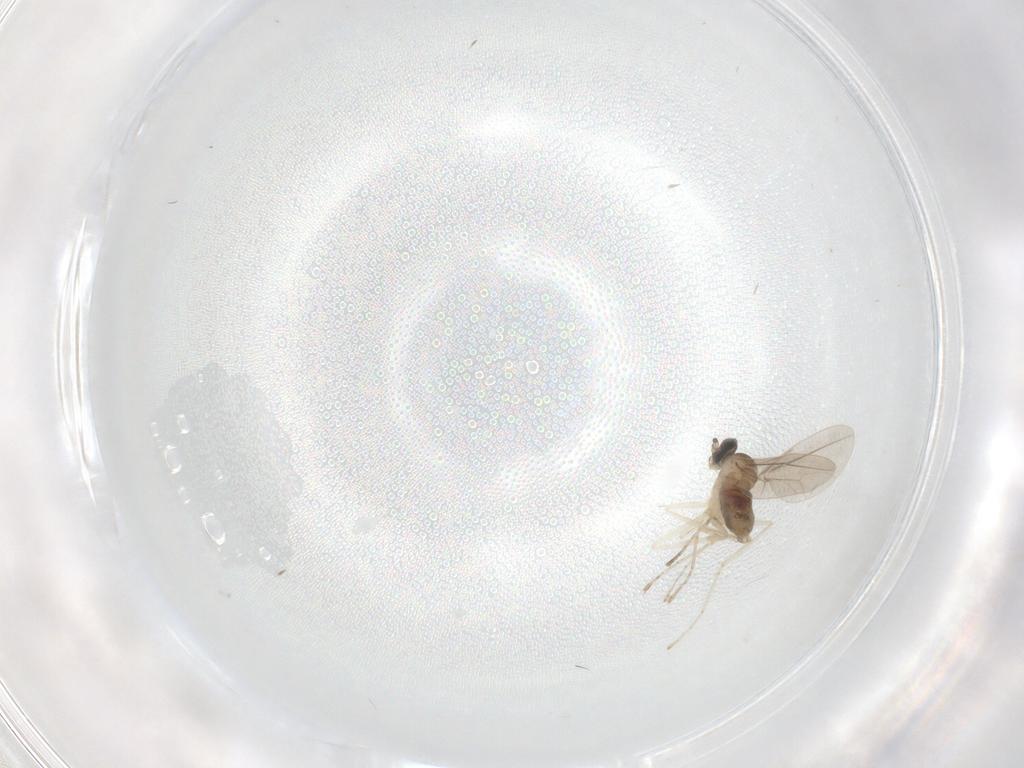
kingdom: Animalia
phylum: Arthropoda
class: Insecta
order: Diptera
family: Cecidomyiidae
